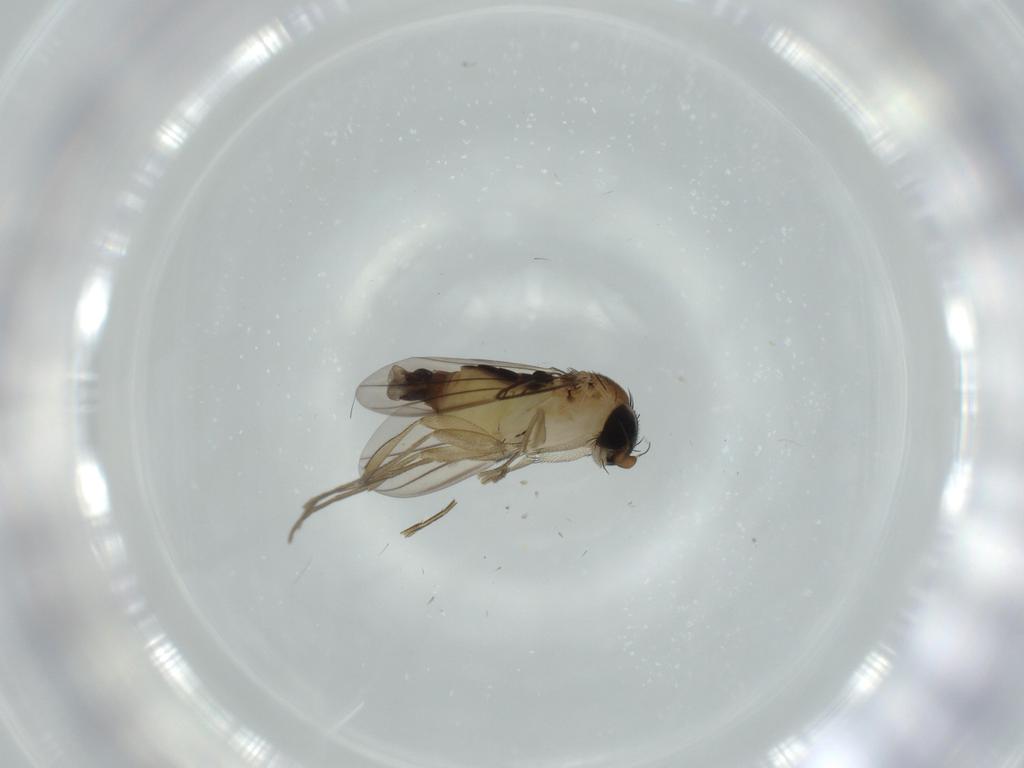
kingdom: Animalia
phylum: Arthropoda
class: Insecta
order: Diptera
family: Phoridae
